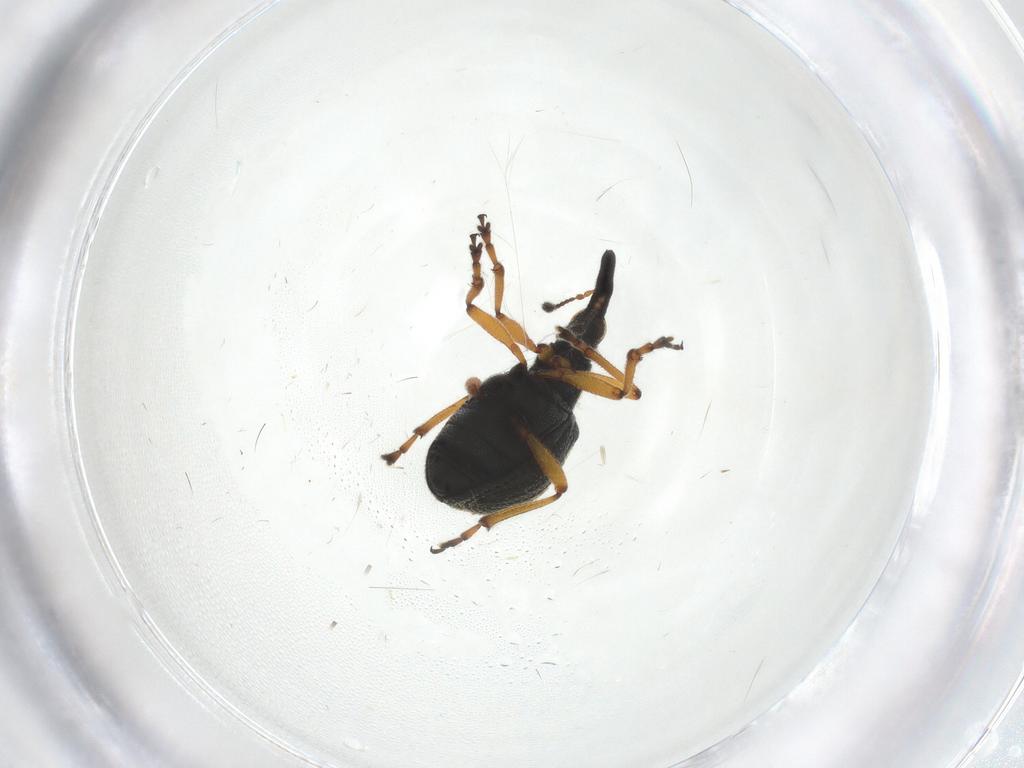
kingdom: Animalia
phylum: Arthropoda
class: Insecta
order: Coleoptera
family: Brentidae
